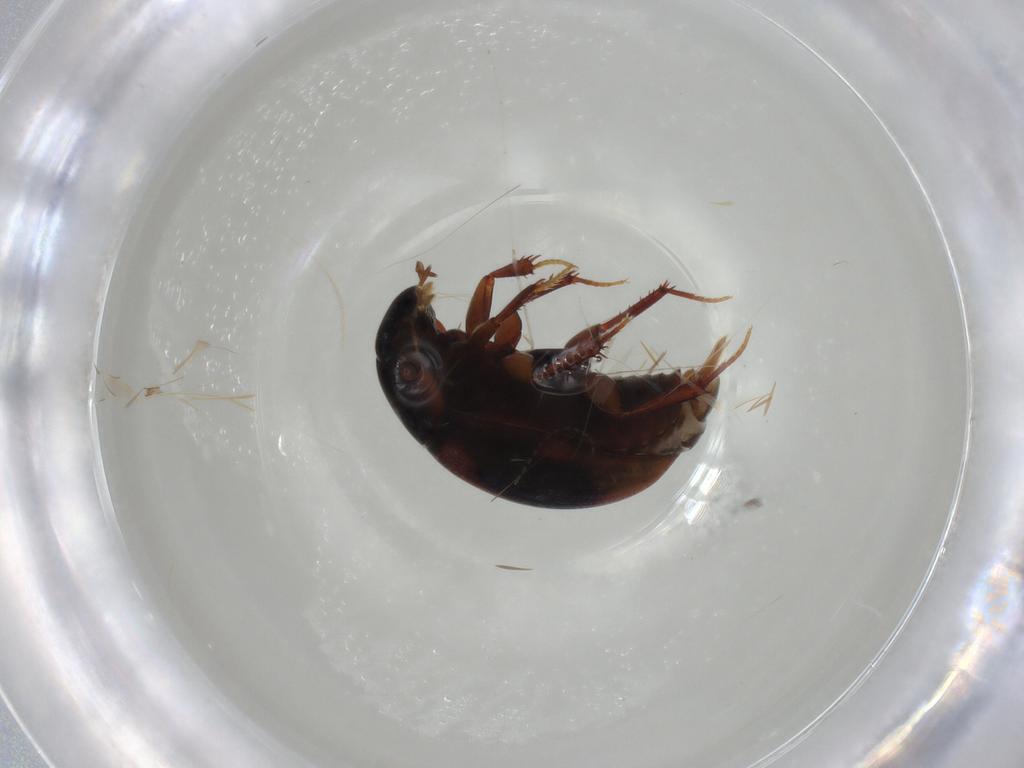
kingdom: Animalia
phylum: Arthropoda
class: Insecta
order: Coleoptera
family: Hydrophilidae
